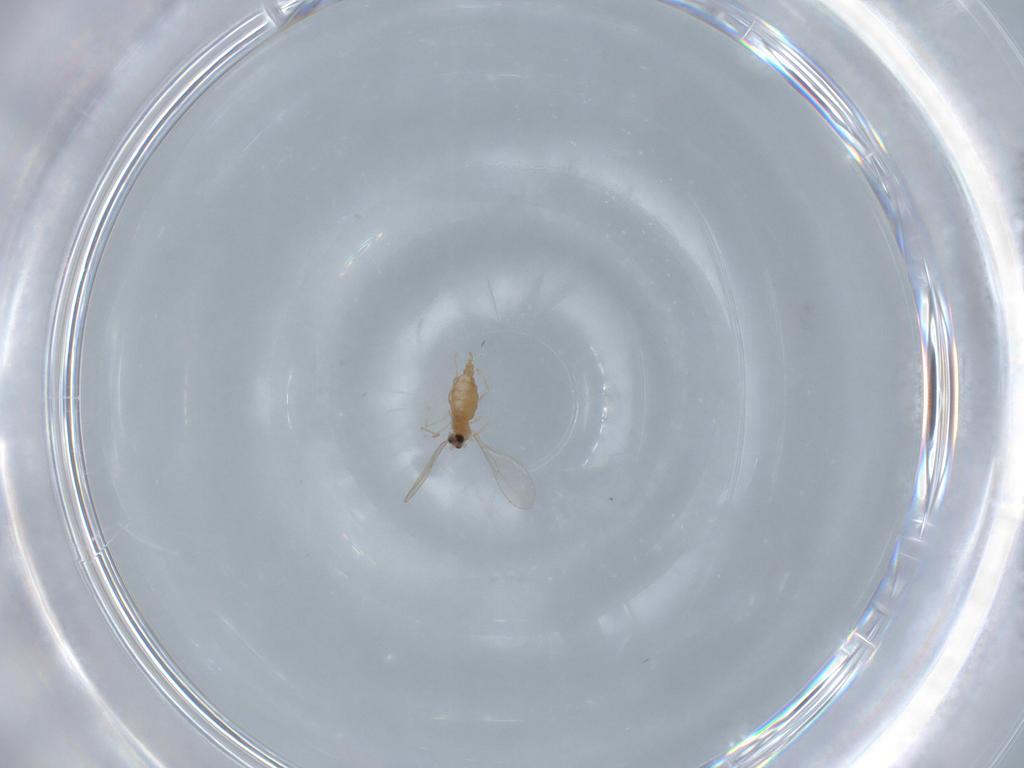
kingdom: Animalia
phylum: Arthropoda
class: Insecta
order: Diptera
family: Cecidomyiidae
